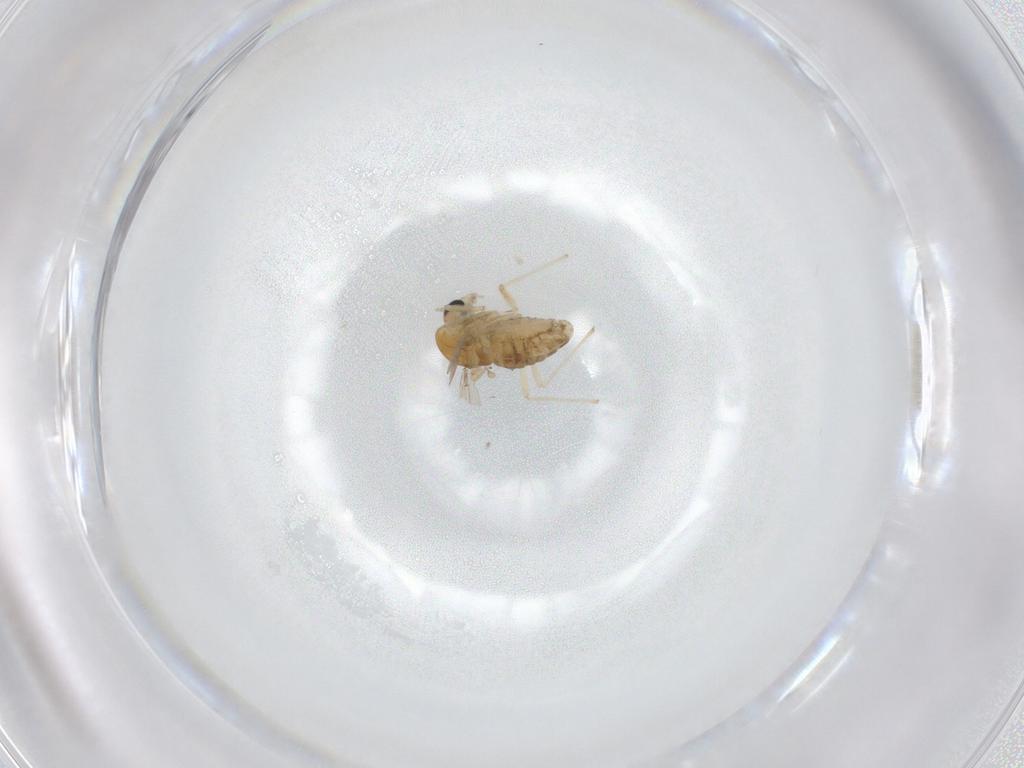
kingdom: Animalia
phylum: Arthropoda
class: Insecta
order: Diptera
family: Chironomidae
